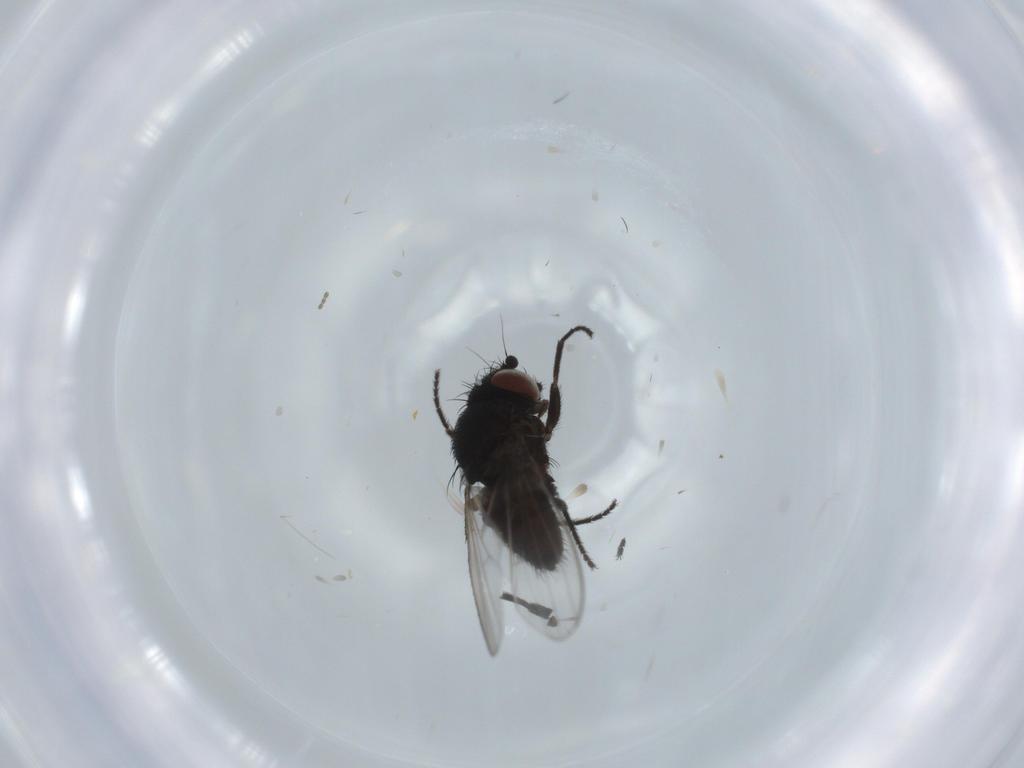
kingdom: Animalia
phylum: Arthropoda
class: Insecta
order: Diptera
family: Milichiidae
